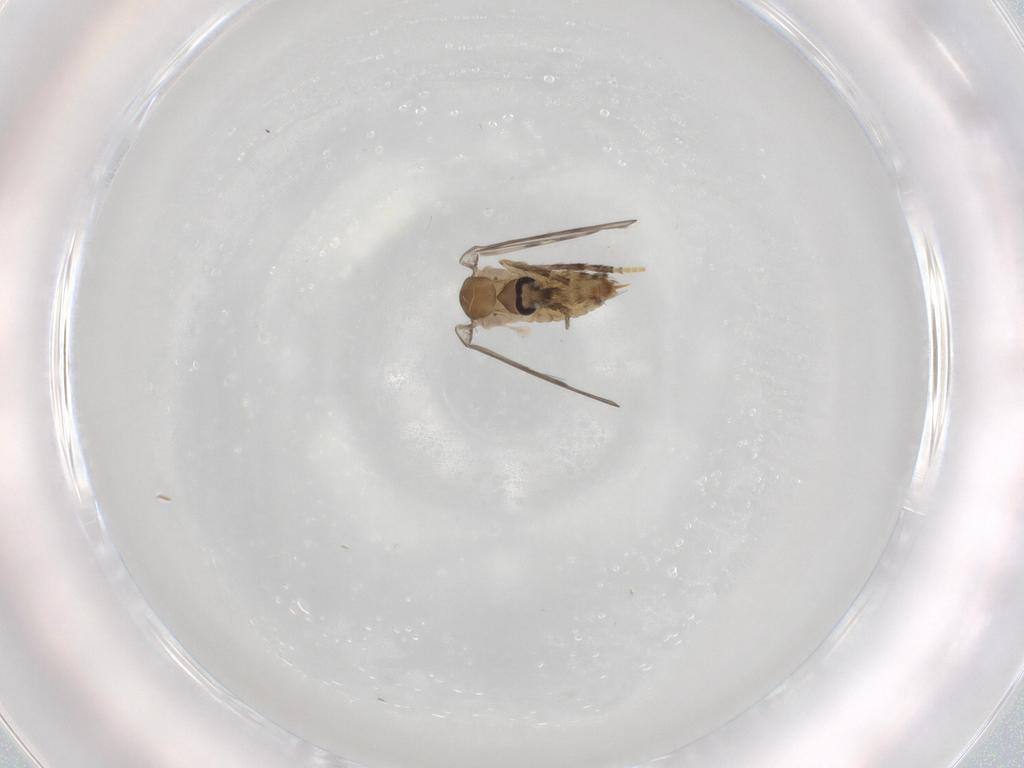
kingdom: Animalia
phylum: Arthropoda
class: Insecta
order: Diptera
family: Psychodidae
